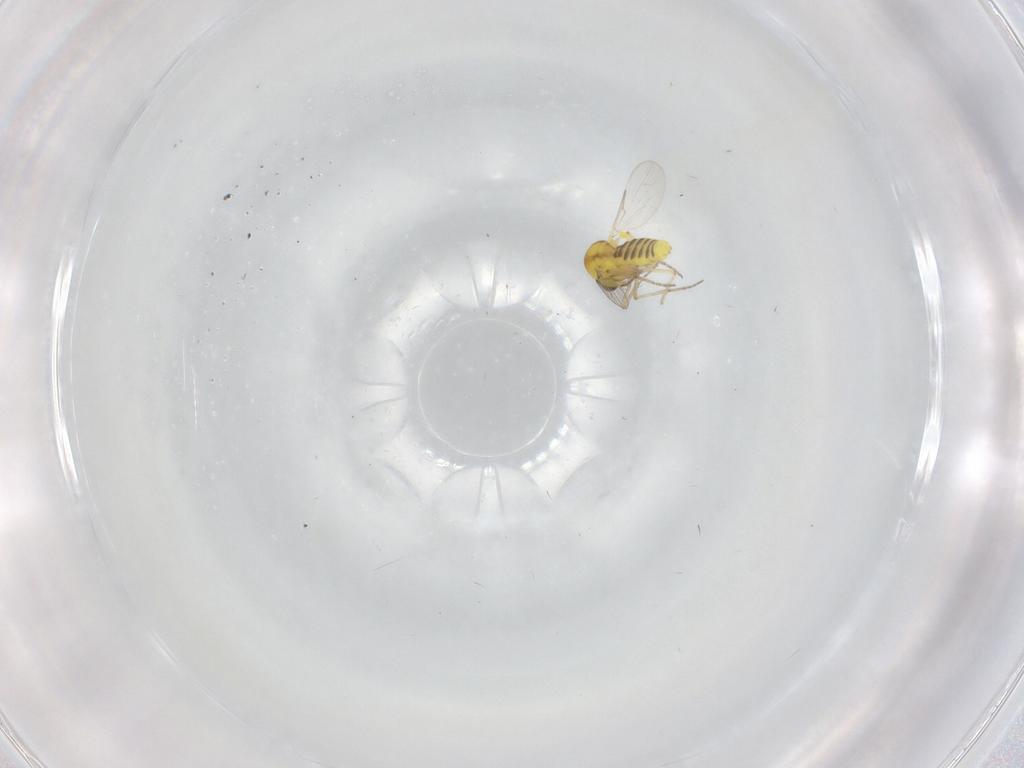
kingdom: Animalia
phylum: Arthropoda
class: Insecta
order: Diptera
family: Ceratopogonidae
